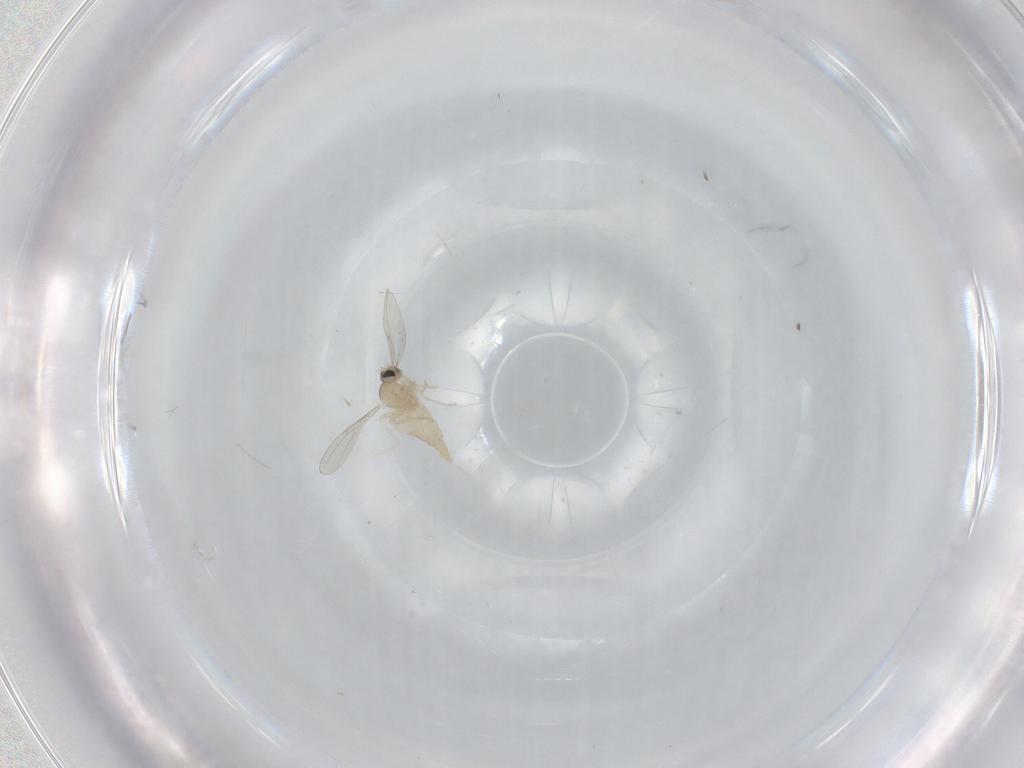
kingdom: Animalia
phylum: Arthropoda
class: Insecta
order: Diptera
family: Cecidomyiidae
